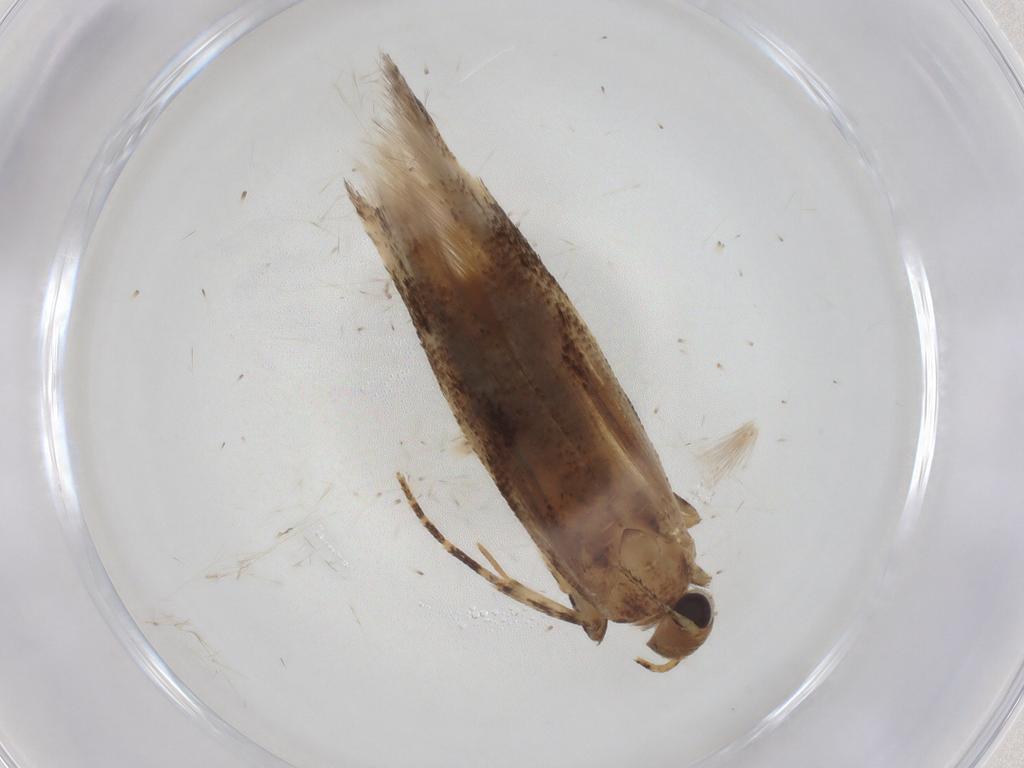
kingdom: Animalia
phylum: Arthropoda
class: Insecta
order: Lepidoptera
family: Gelechiidae
